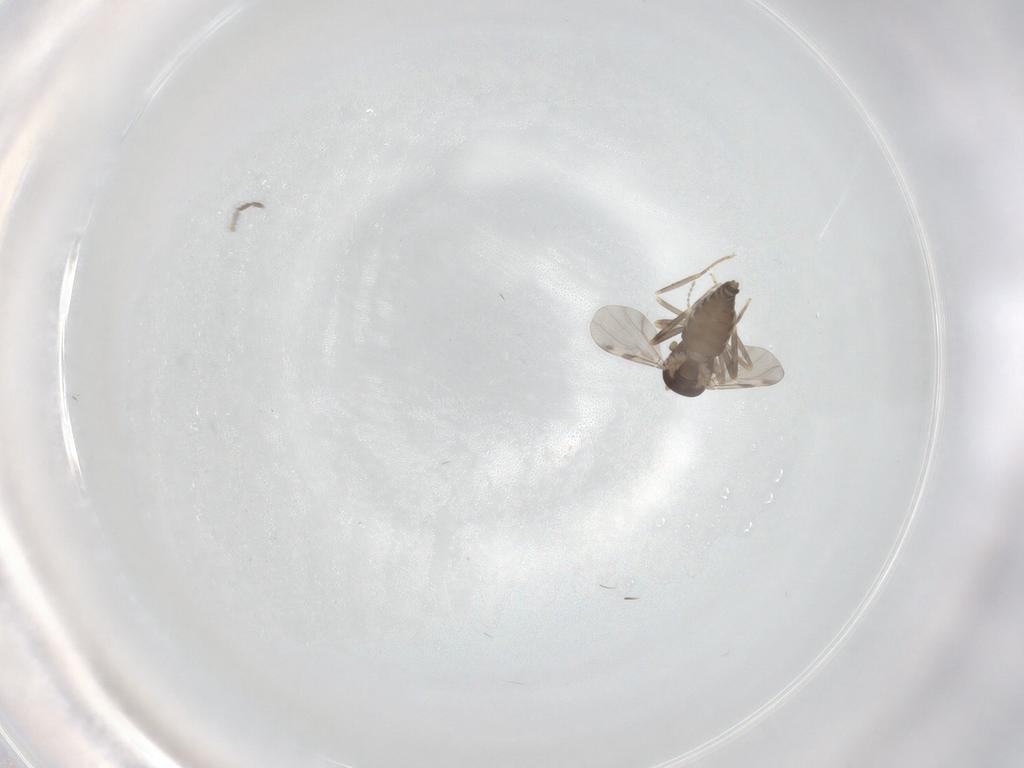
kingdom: Animalia
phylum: Arthropoda
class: Insecta
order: Diptera
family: Ceratopogonidae
